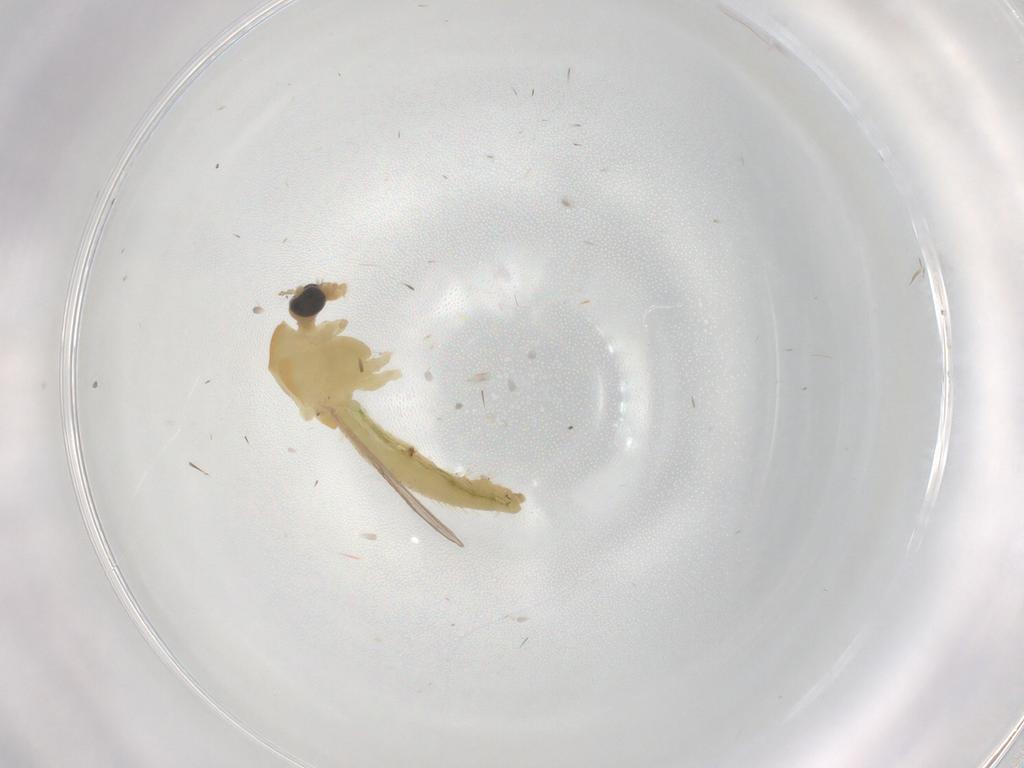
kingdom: Animalia
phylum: Arthropoda
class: Insecta
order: Diptera
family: Chironomidae
